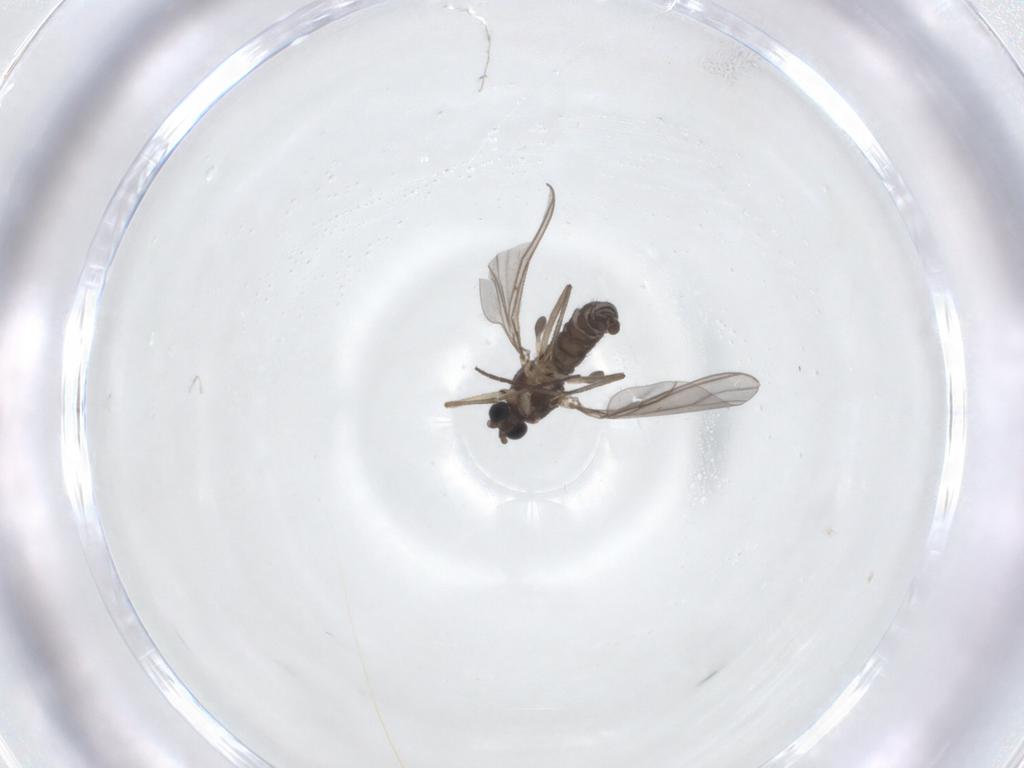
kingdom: Animalia
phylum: Arthropoda
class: Insecta
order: Diptera
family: Sciaridae
